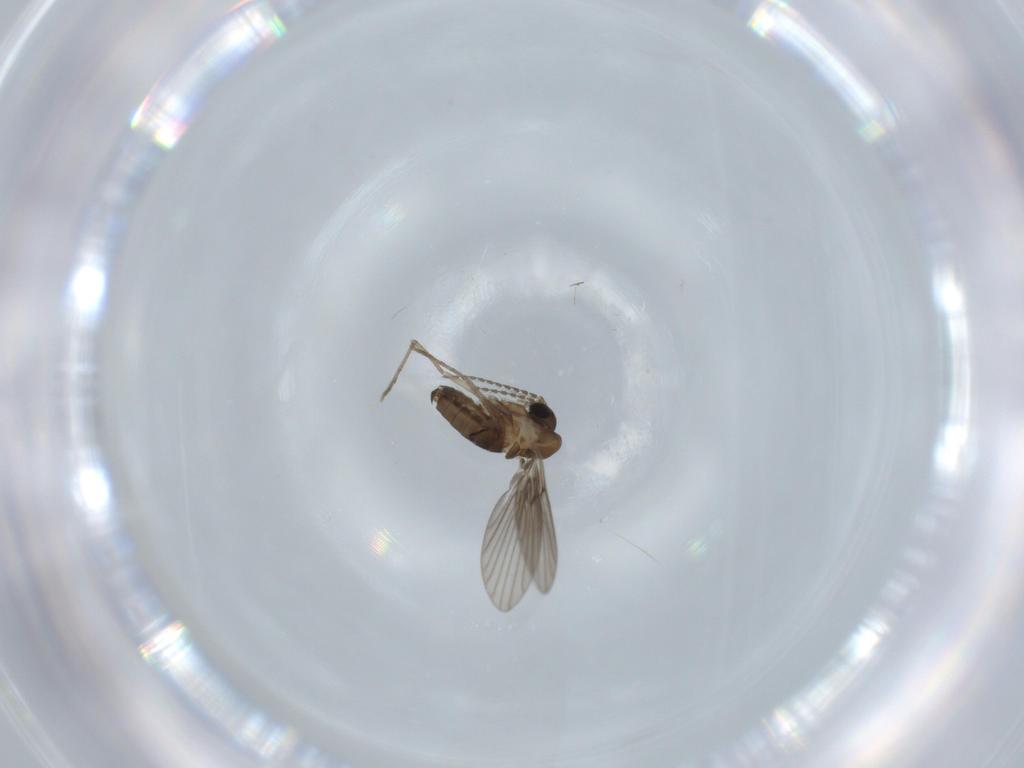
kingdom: Animalia
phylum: Arthropoda
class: Insecta
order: Diptera
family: Psychodidae
